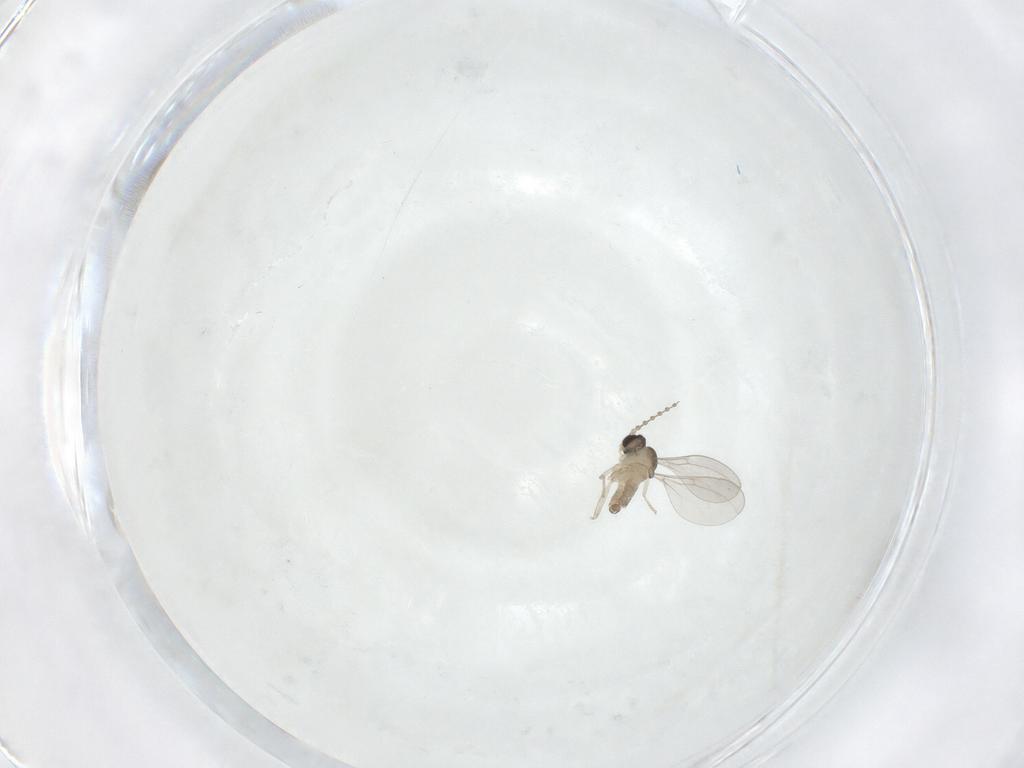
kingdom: Animalia
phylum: Arthropoda
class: Insecta
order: Diptera
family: Cecidomyiidae
